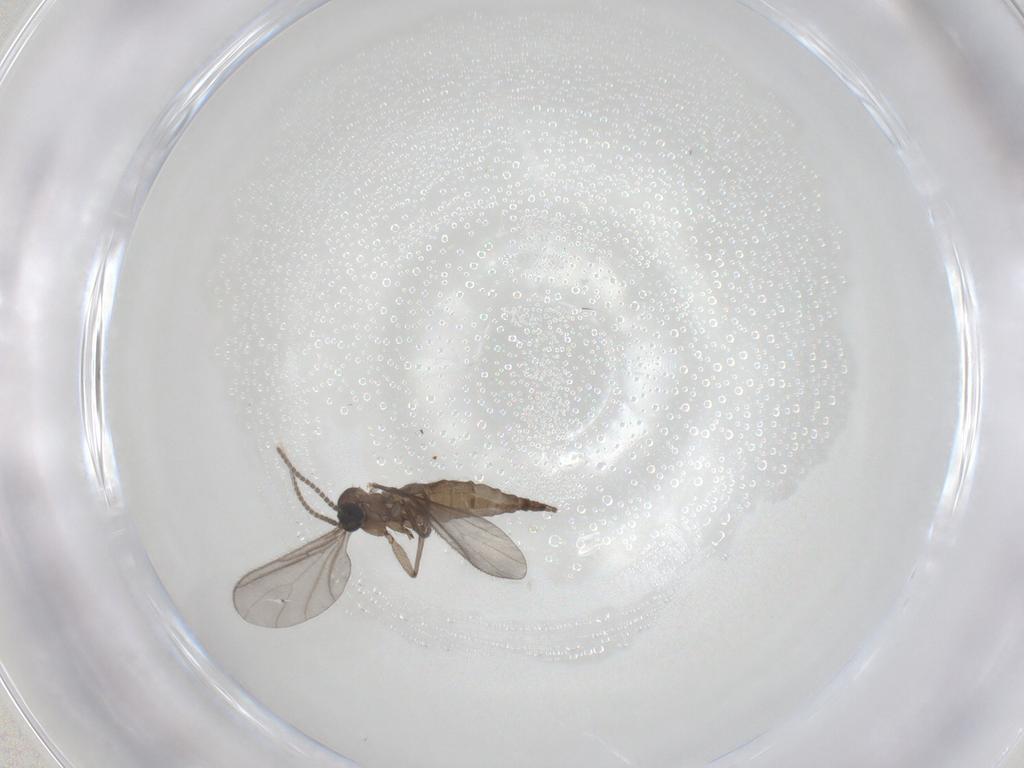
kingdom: Animalia
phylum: Arthropoda
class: Insecta
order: Diptera
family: Sciaridae
